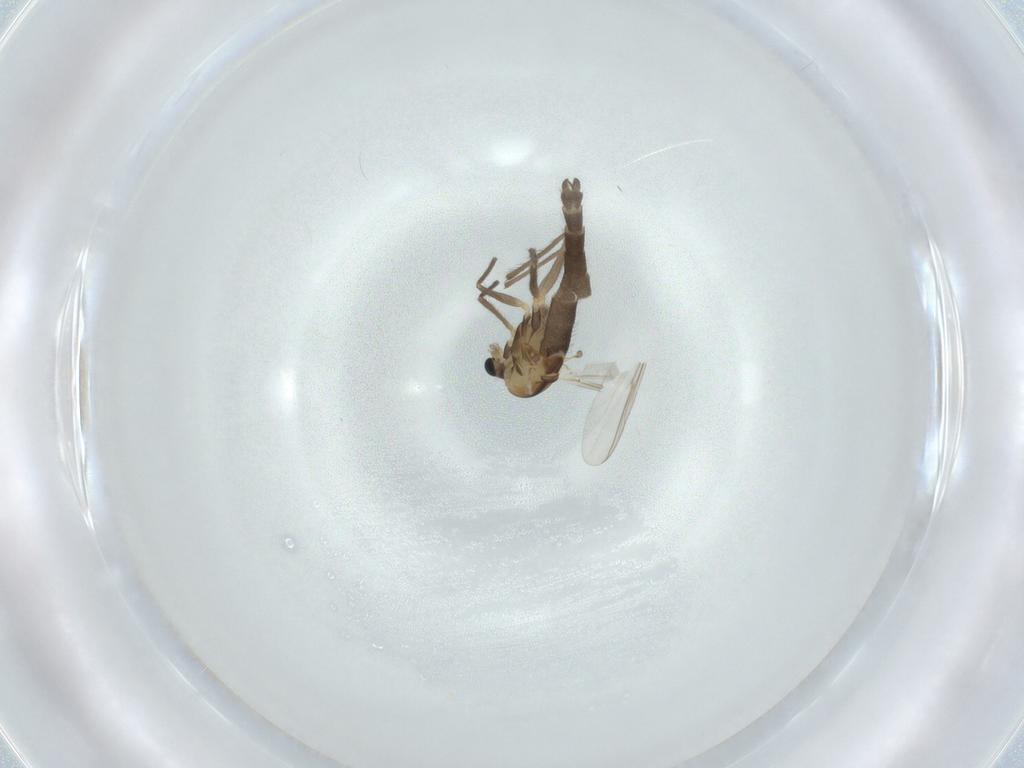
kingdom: Animalia
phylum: Arthropoda
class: Insecta
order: Diptera
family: Chironomidae
